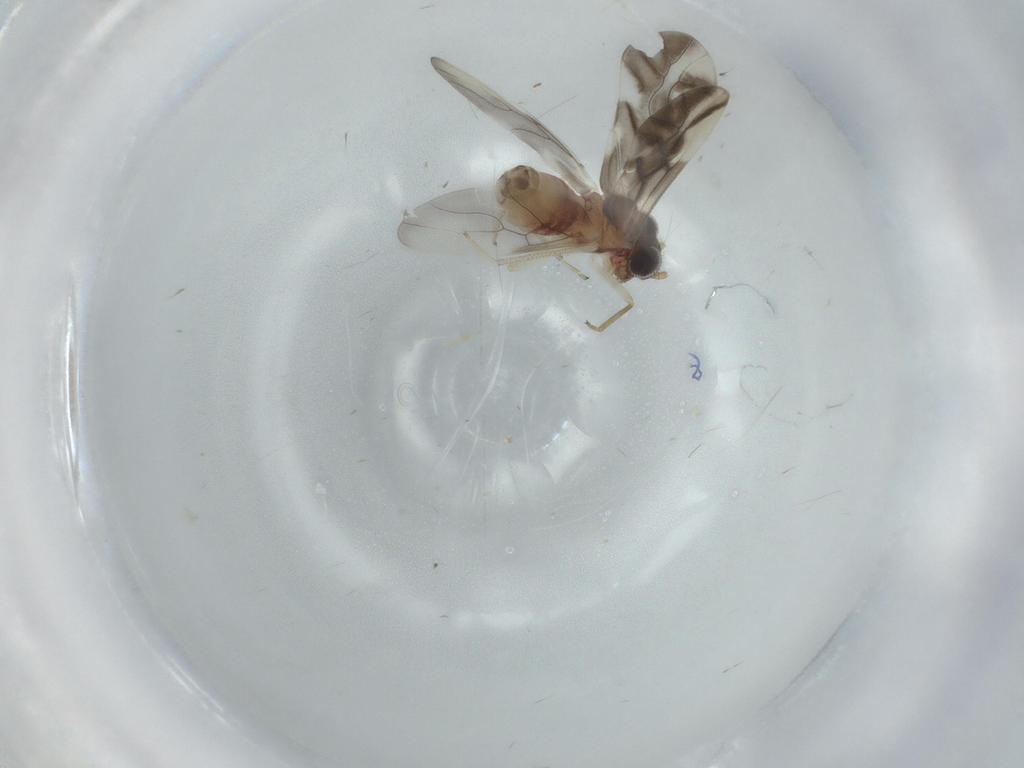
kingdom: Animalia
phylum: Arthropoda
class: Insecta
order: Psocodea
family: Caeciliusidae
